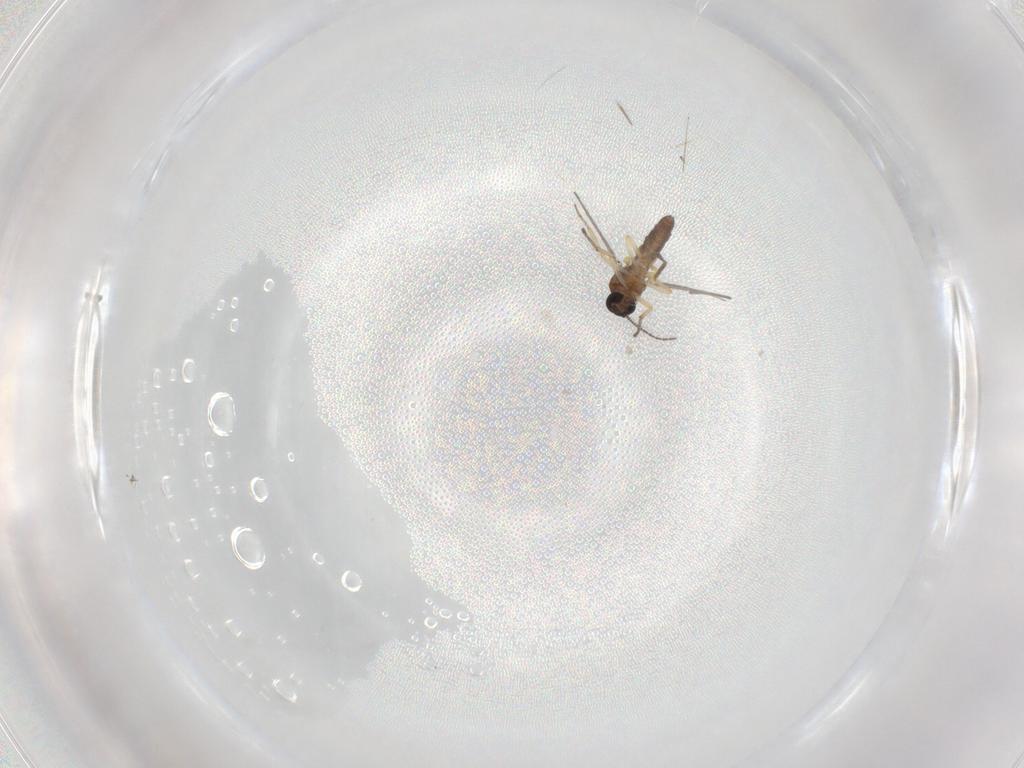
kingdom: Animalia
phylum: Arthropoda
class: Insecta
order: Diptera
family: Ceratopogonidae
